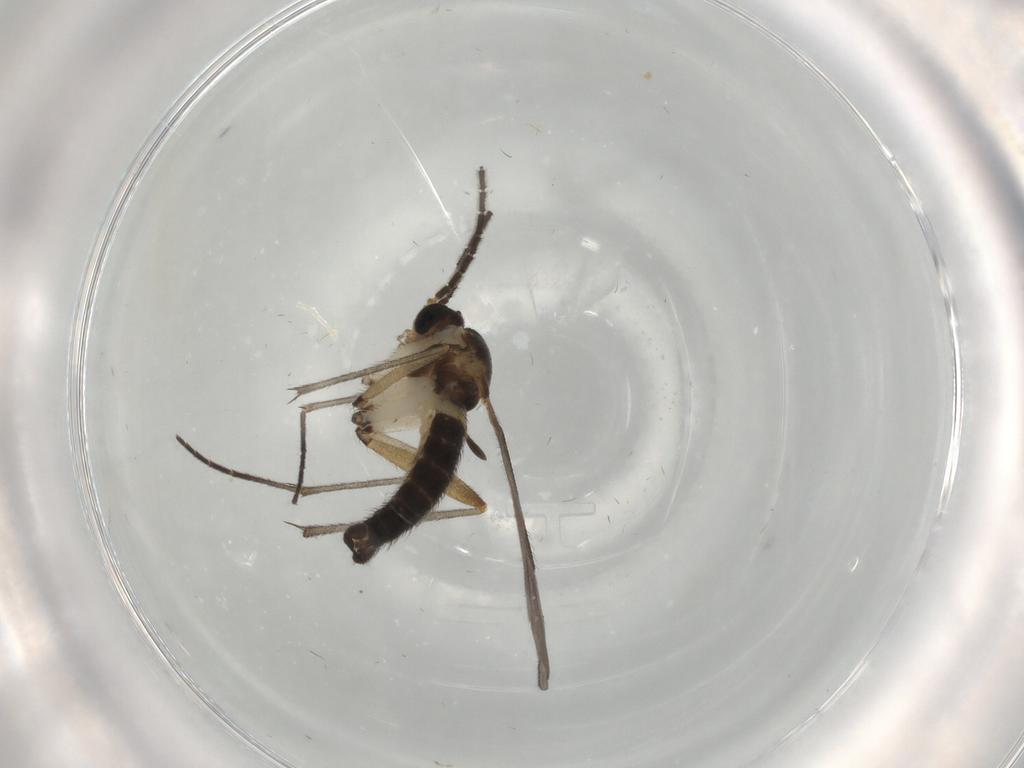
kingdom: Animalia
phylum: Arthropoda
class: Insecta
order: Diptera
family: Sciaridae
